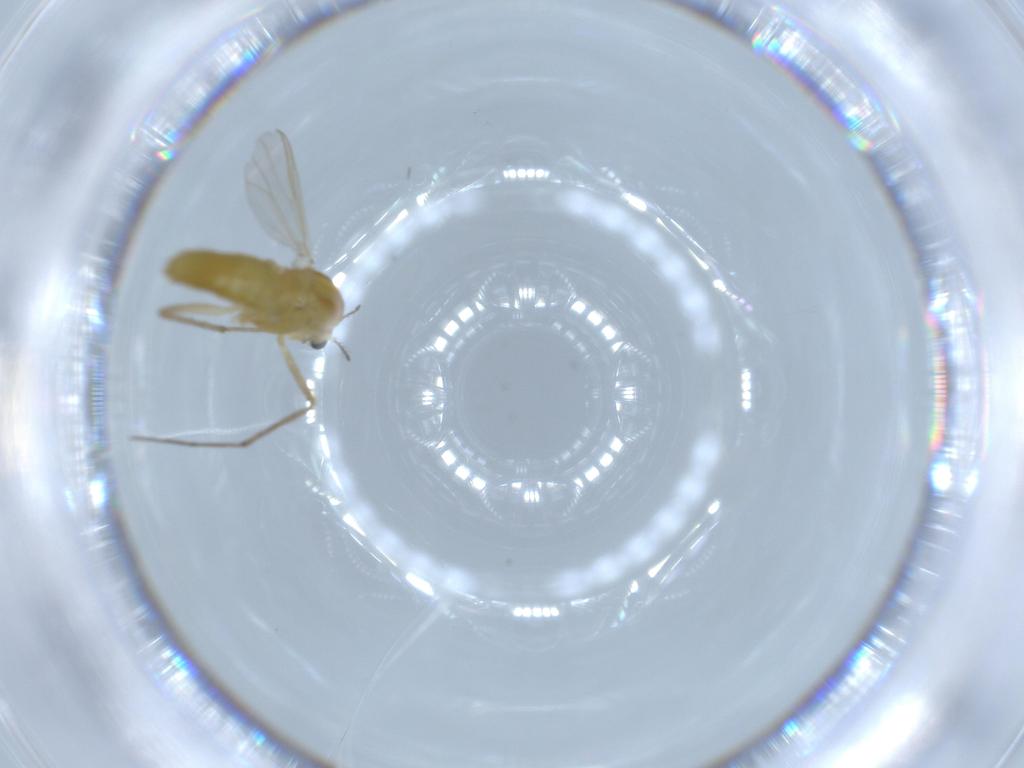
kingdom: Animalia
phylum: Arthropoda
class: Insecta
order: Diptera
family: Chironomidae
